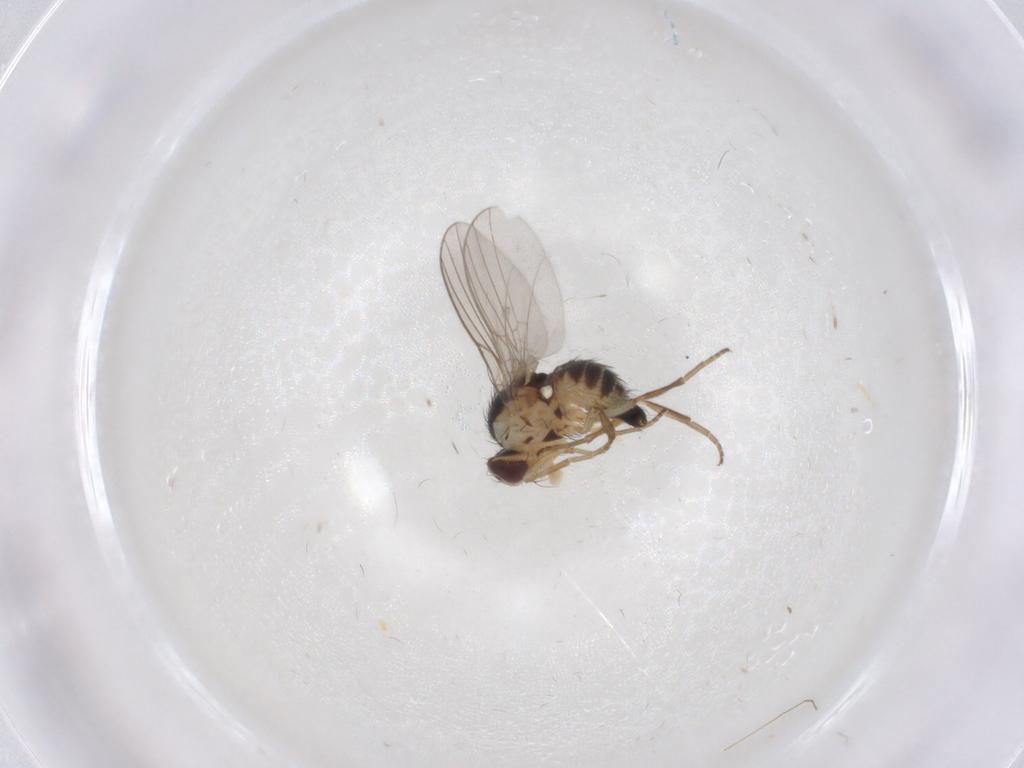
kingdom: Animalia
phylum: Arthropoda
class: Insecta
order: Diptera
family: Agromyzidae
